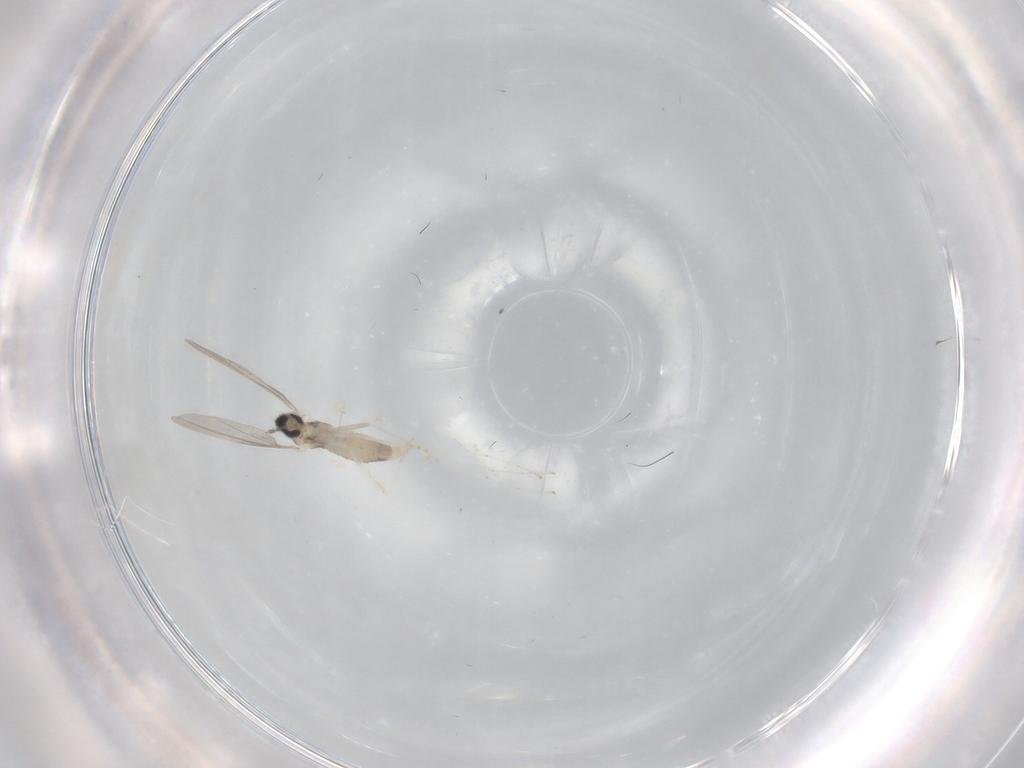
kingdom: Animalia
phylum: Arthropoda
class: Insecta
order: Diptera
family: Cecidomyiidae
